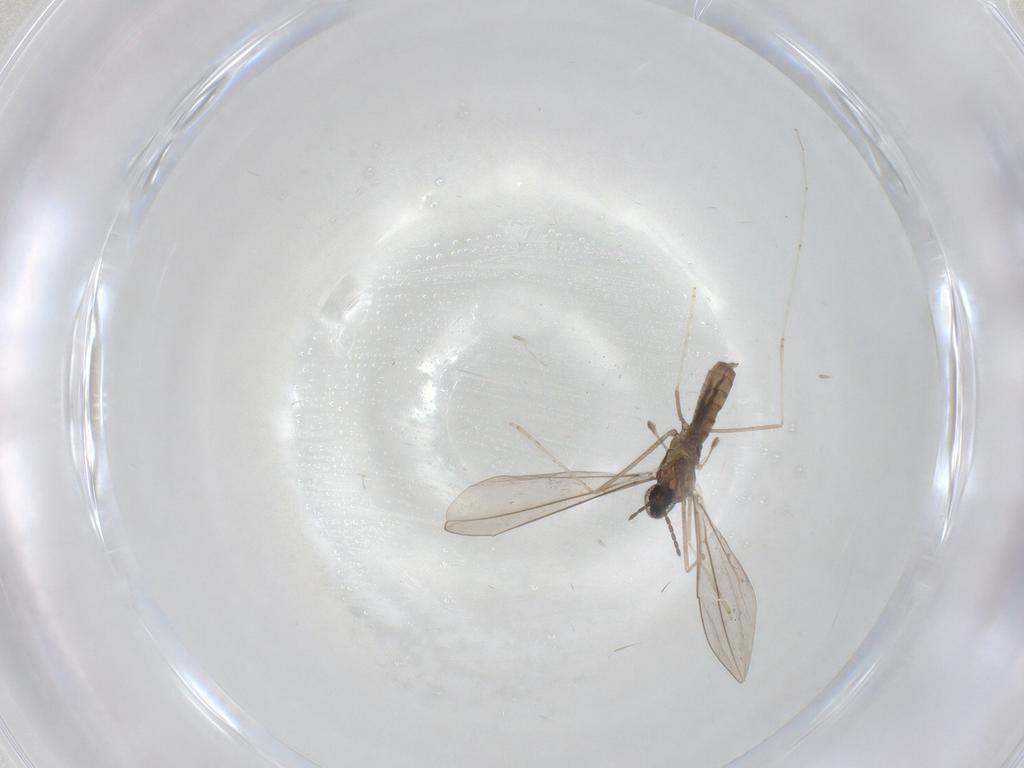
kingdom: Animalia
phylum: Arthropoda
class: Insecta
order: Diptera
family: Cecidomyiidae
